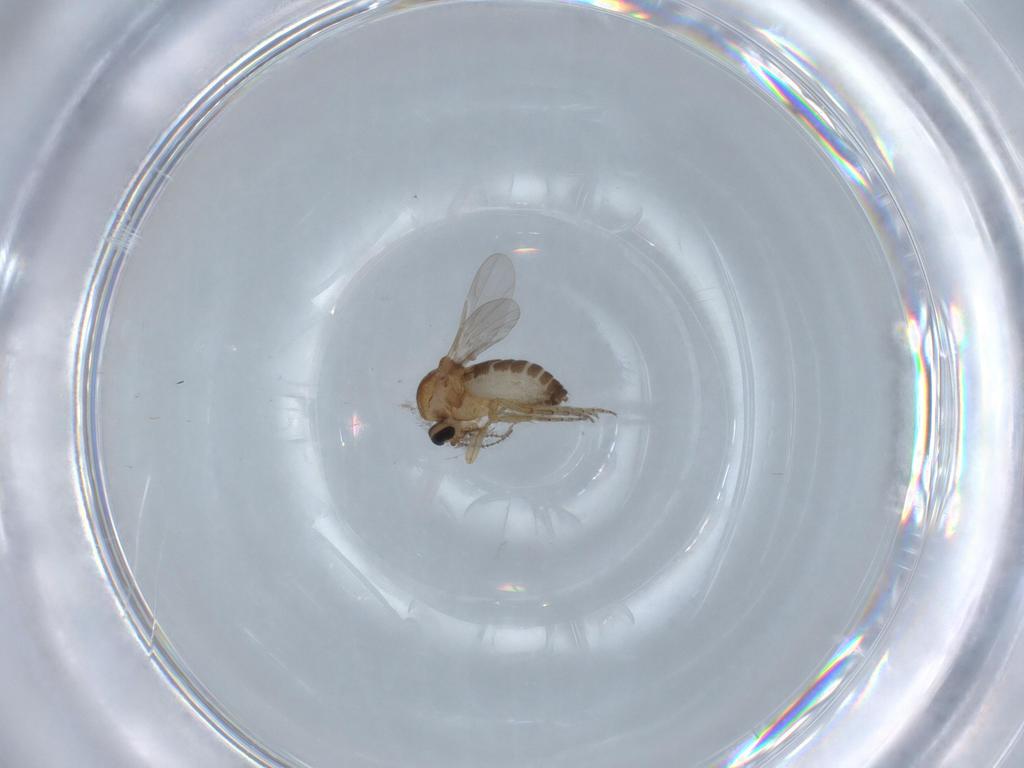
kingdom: Animalia
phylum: Arthropoda
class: Insecta
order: Diptera
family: Ceratopogonidae
